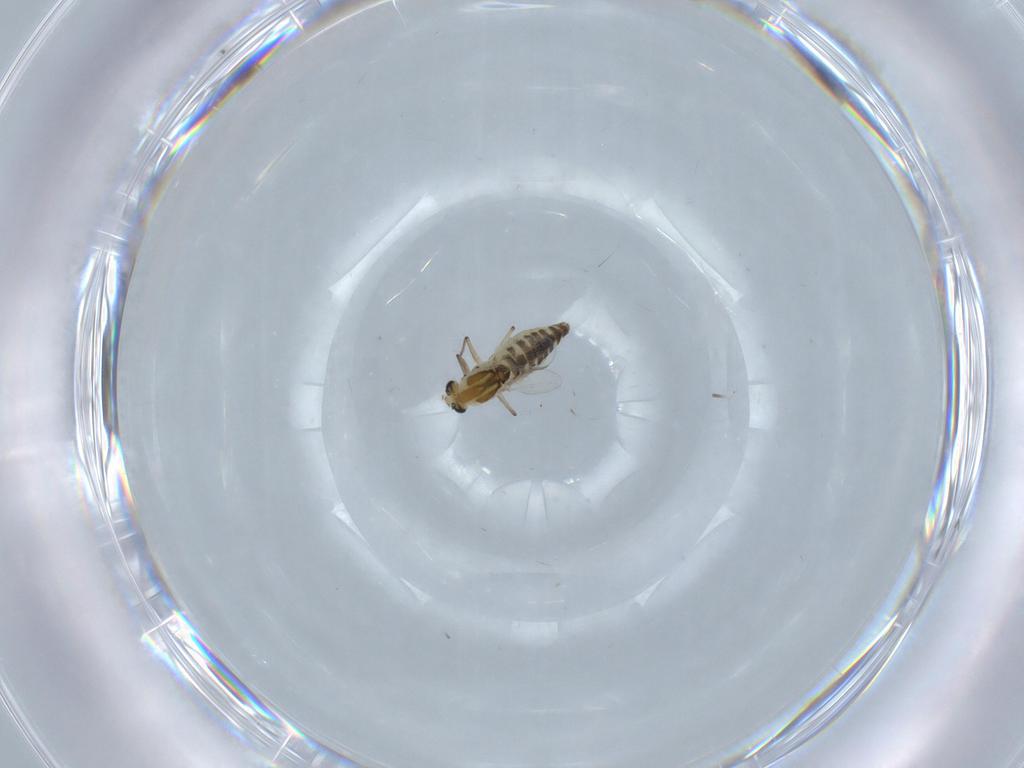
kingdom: Animalia
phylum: Arthropoda
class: Insecta
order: Diptera
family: Chironomidae
